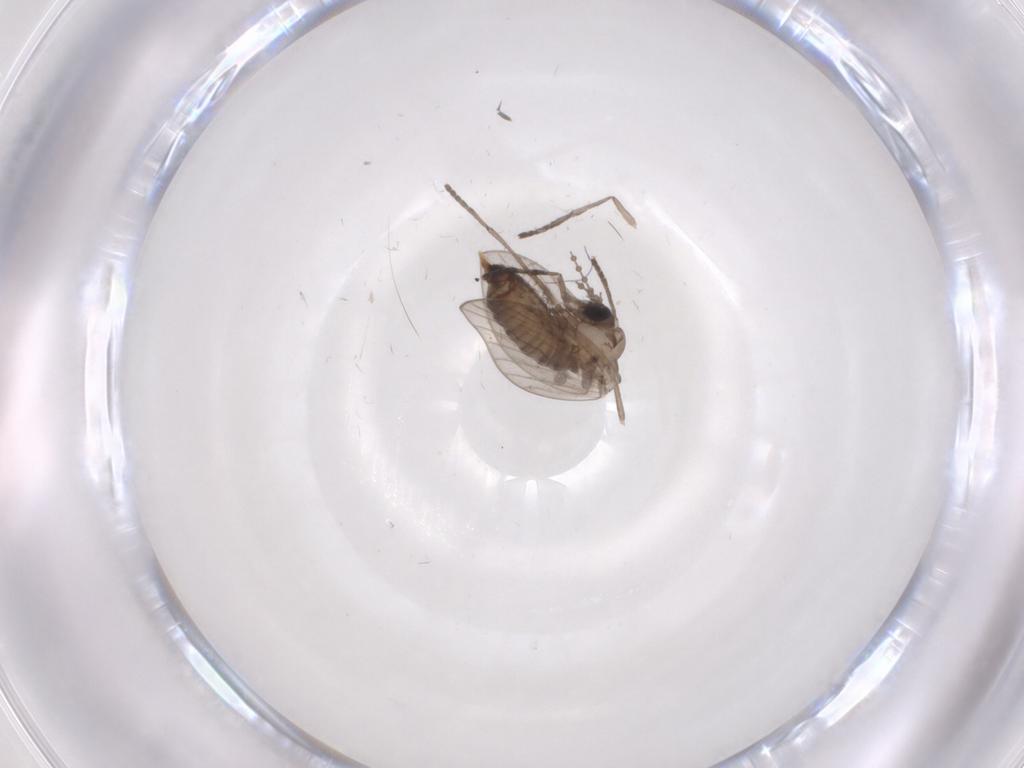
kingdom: Animalia
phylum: Arthropoda
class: Insecta
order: Diptera
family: Psychodidae
